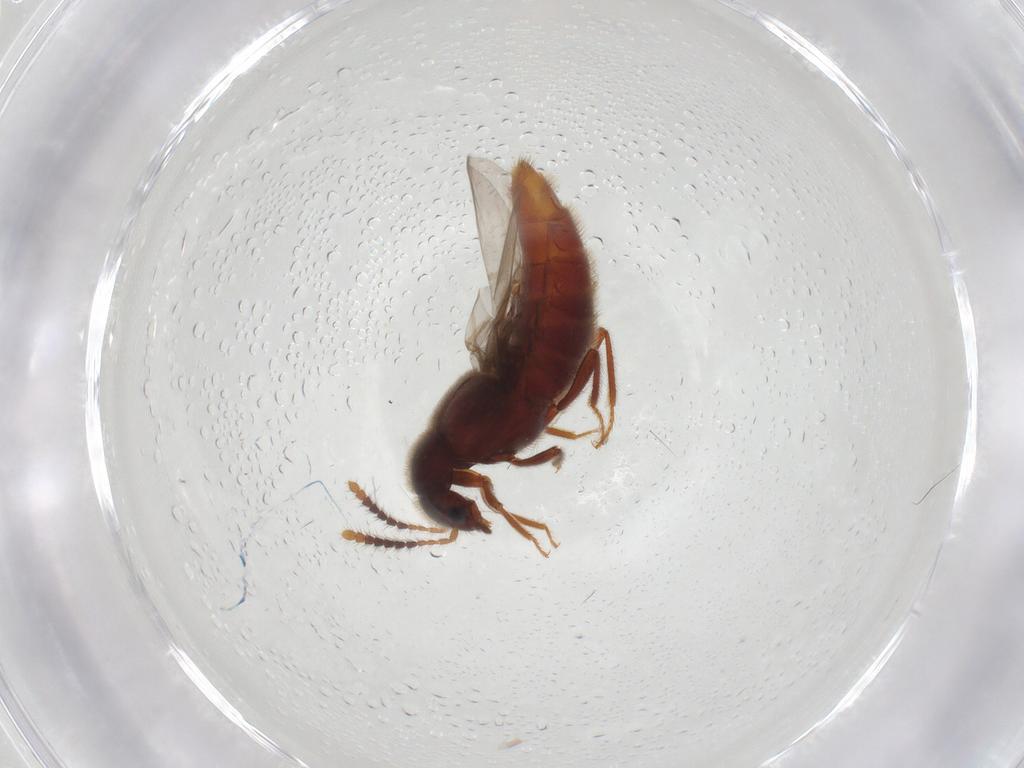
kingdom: Animalia
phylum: Arthropoda
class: Insecta
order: Coleoptera
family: Staphylinidae
